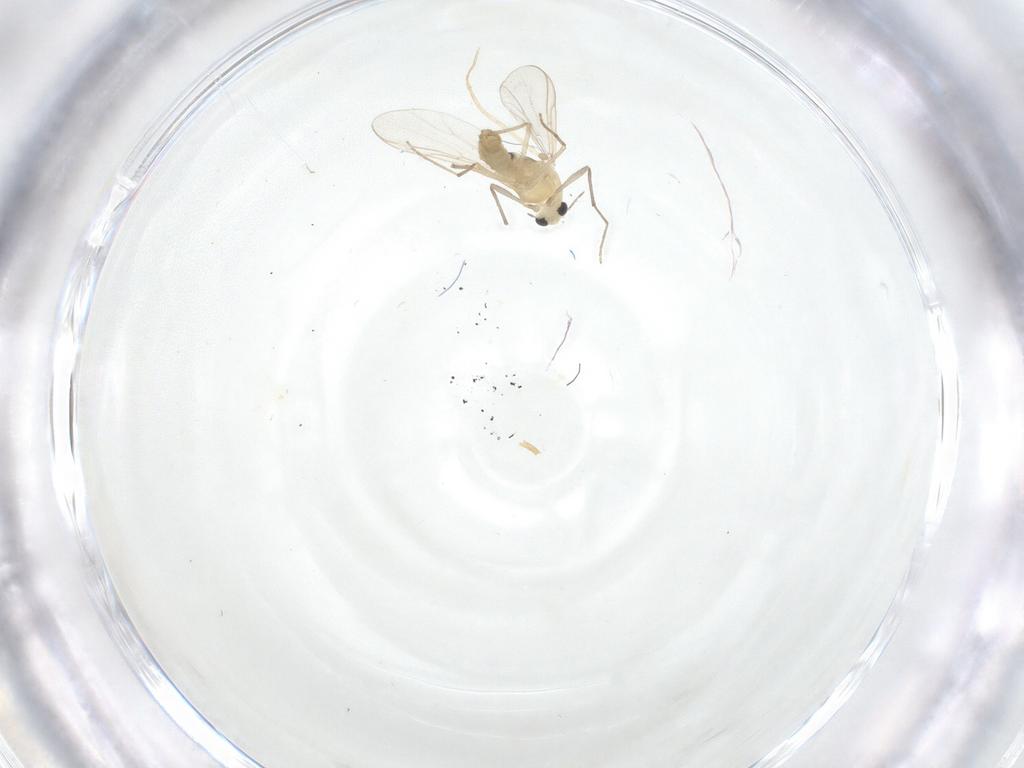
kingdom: Animalia
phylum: Arthropoda
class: Insecta
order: Diptera
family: Chironomidae
